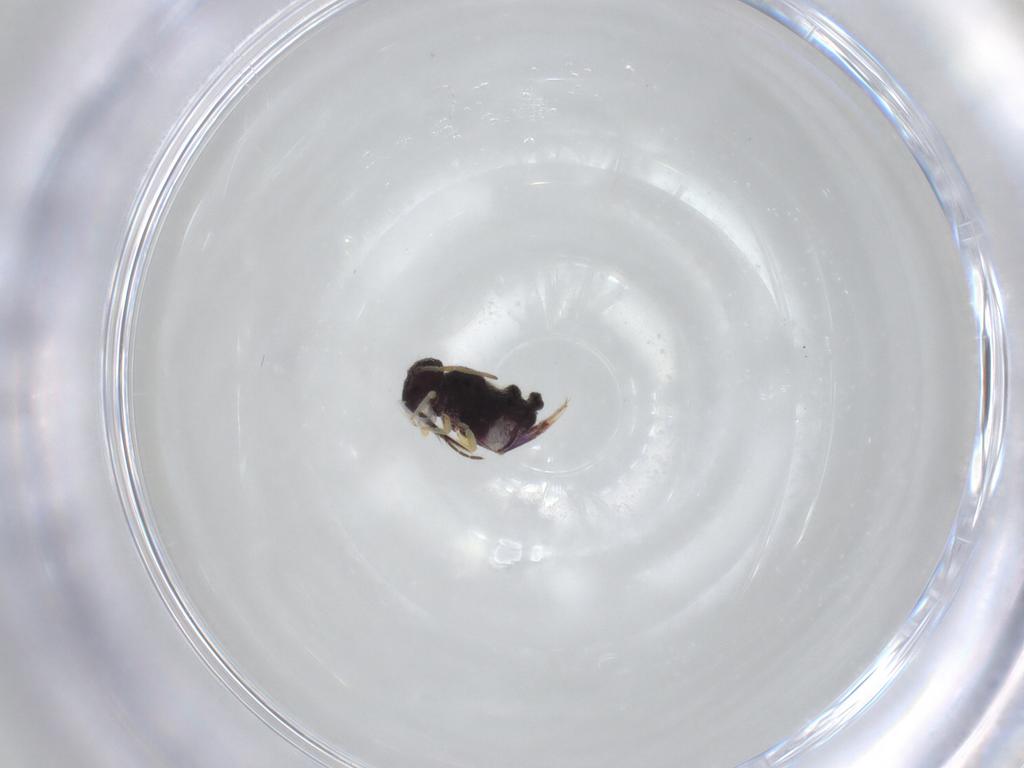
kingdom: Animalia
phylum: Arthropoda
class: Insecta
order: Diptera
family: Ceratopogonidae
